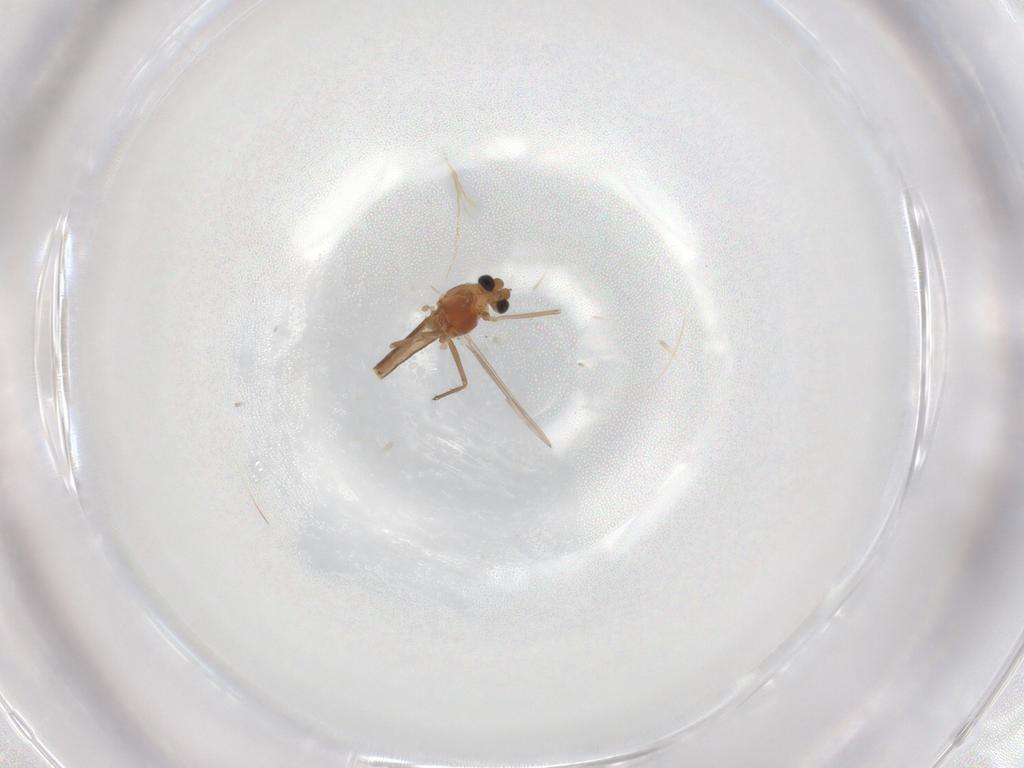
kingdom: Animalia
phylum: Arthropoda
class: Insecta
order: Diptera
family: Chironomidae
